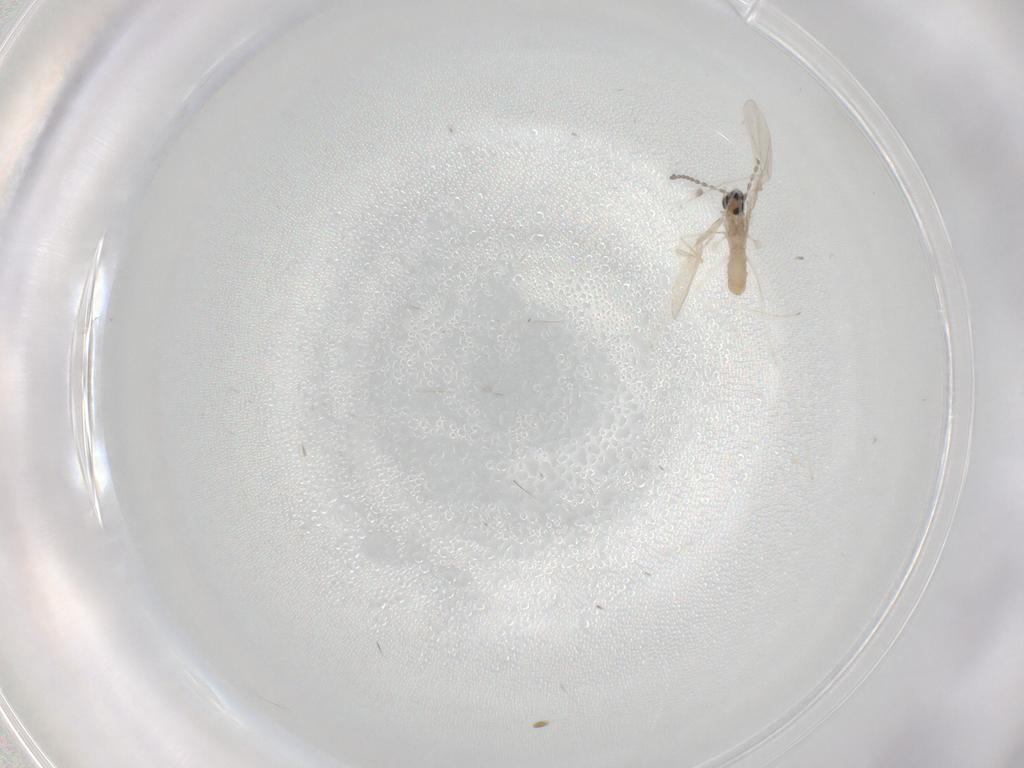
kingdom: Animalia
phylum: Arthropoda
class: Insecta
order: Diptera
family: Cecidomyiidae
